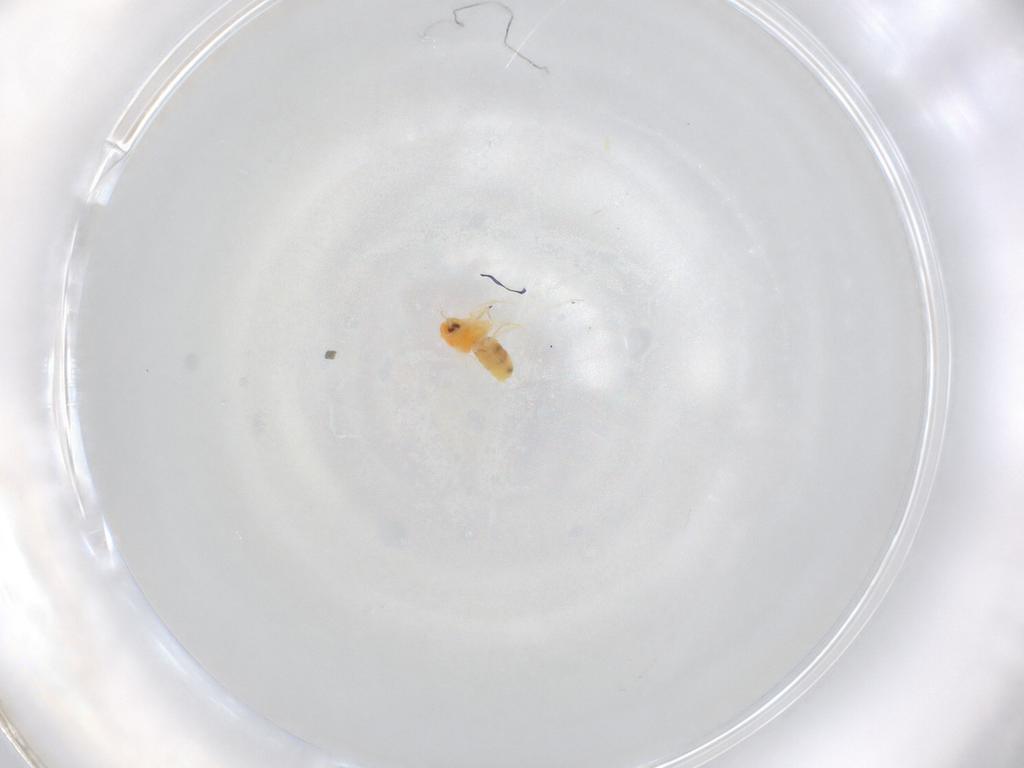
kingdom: Animalia
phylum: Arthropoda
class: Insecta
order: Hemiptera
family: Aleyrodidae
